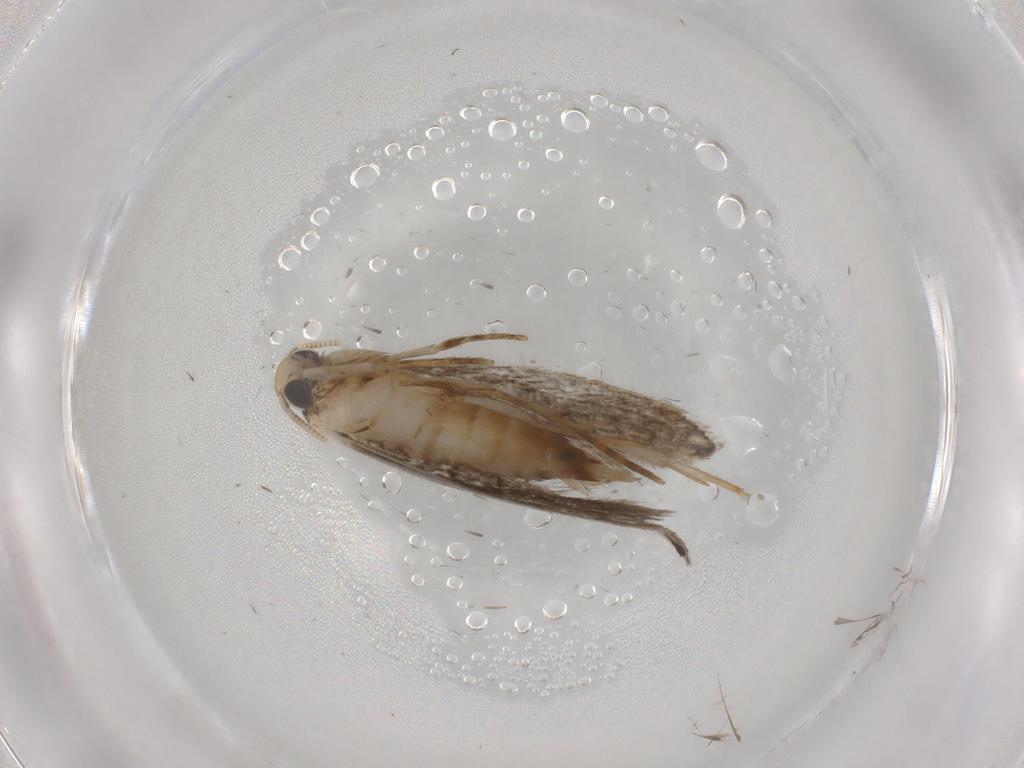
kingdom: Animalia
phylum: Arthropoda
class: Insecta
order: Lepidoptera
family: Tineidae
